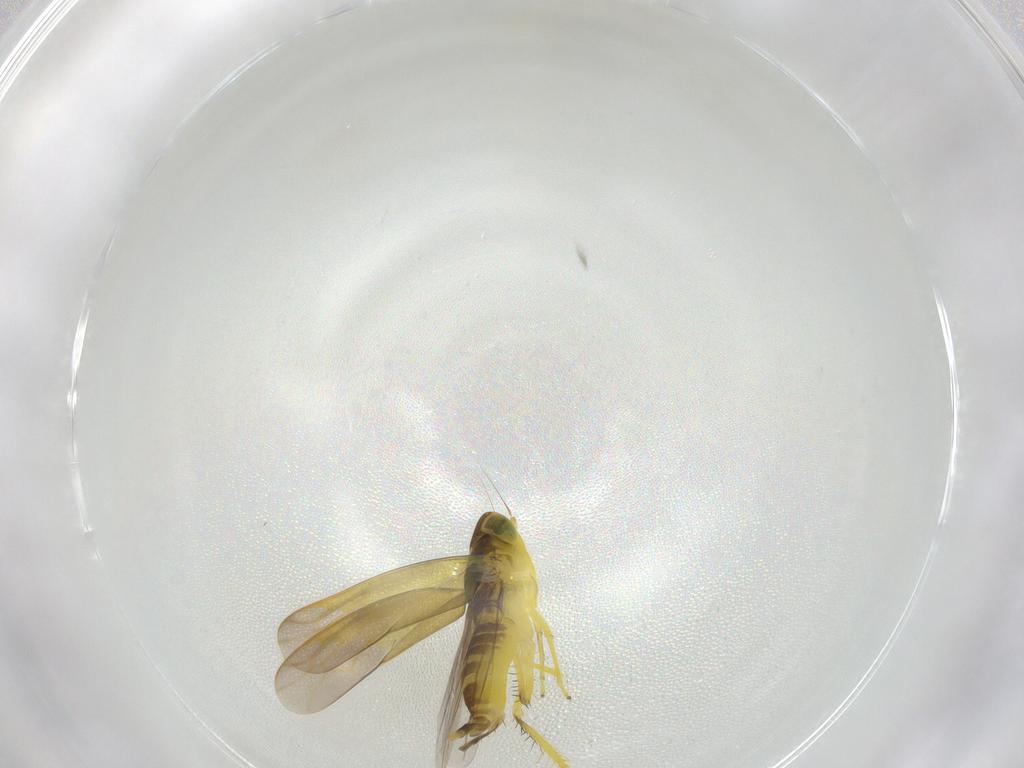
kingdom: Animalia
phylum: Arthropoda
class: Insecta
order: Hemiptera
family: Cicadellidae
